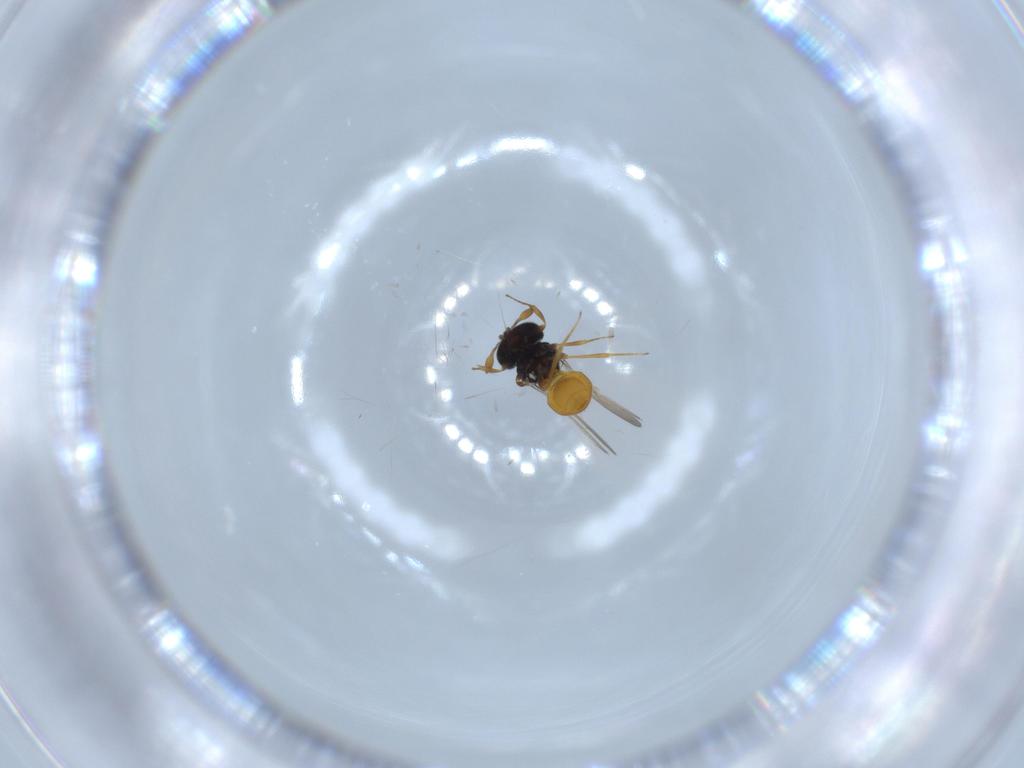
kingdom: Animalia
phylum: Arthropoda
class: Insecta
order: Hymenoptera
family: Scelionidae
